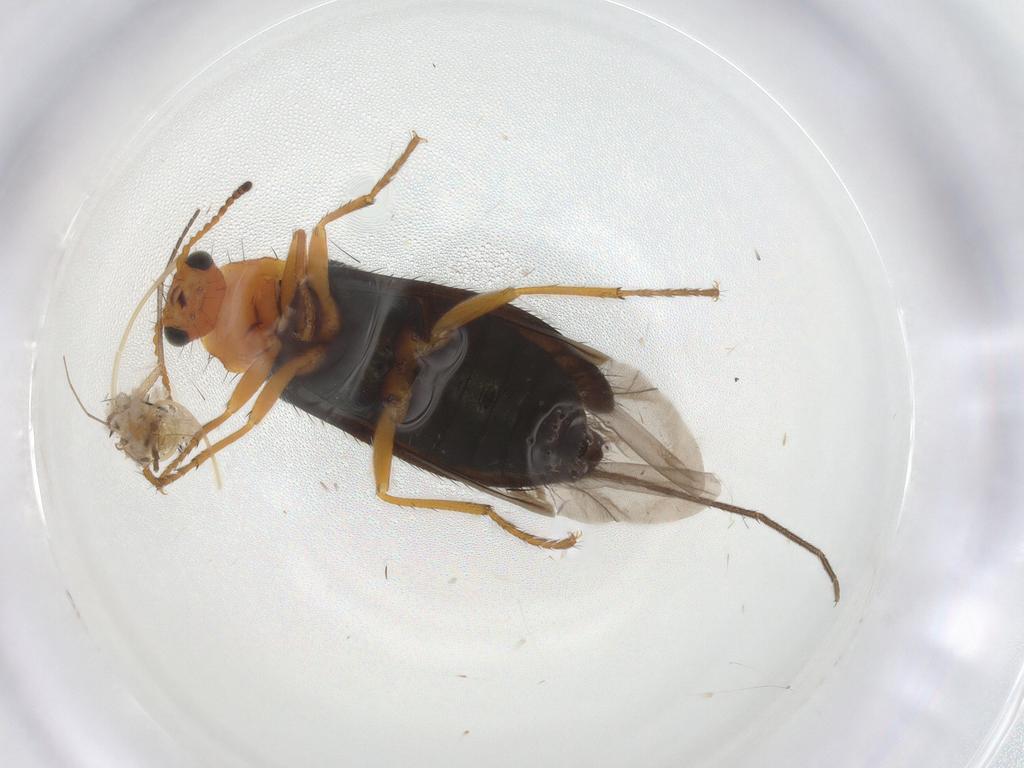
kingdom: Animalia
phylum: Arthropoda
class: Insecta
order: Coleoptera
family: Melyridae
